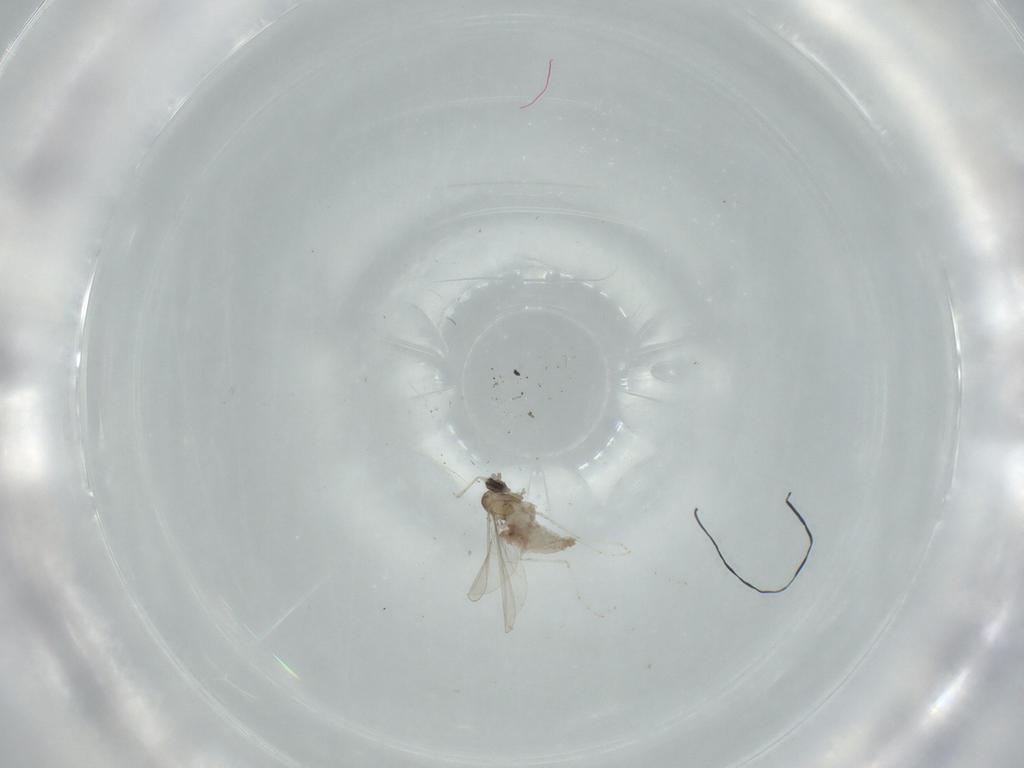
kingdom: Animalia
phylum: Arthropoda
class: Insecta
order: Diptera
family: Cecidomyiidae
